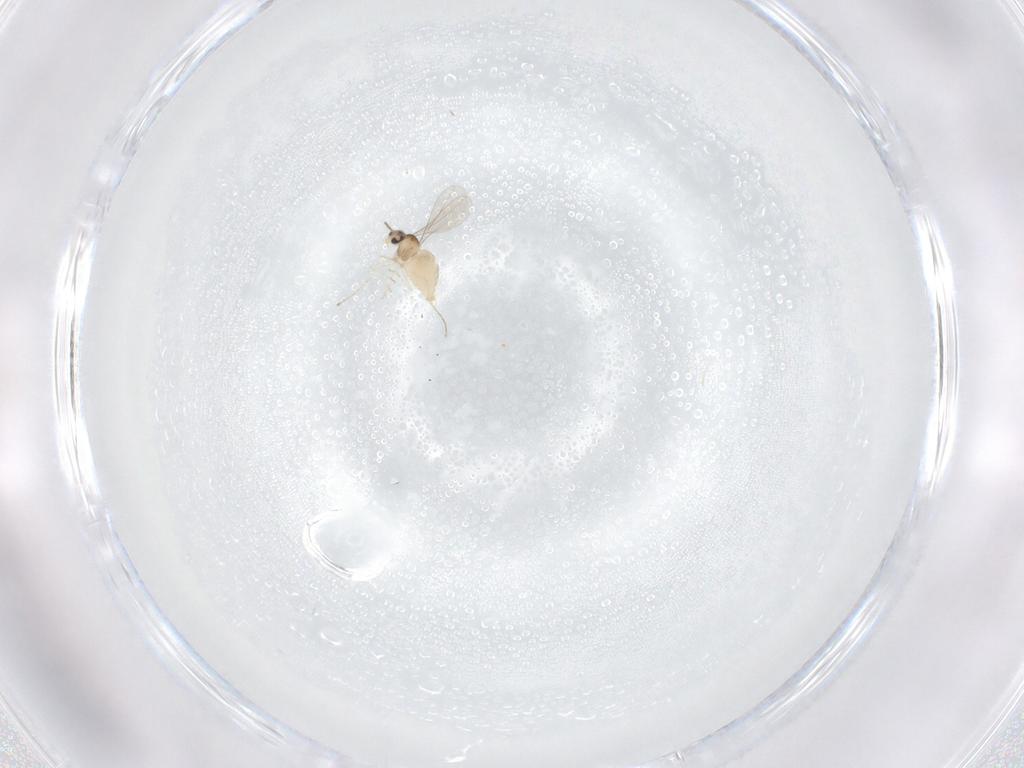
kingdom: Animalia
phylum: Arthropoda
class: Insecta
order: Diptera
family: Cecidomyiidae
